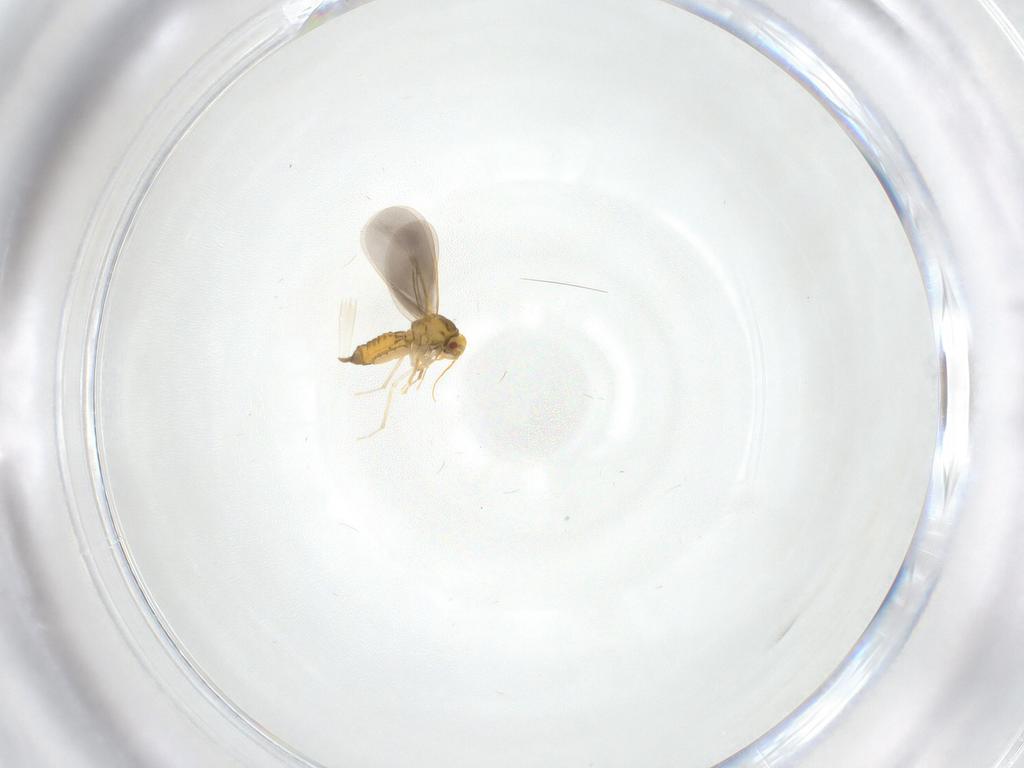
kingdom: Animalia
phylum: Arthropoda
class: Insecta
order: Hemiptera
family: Aleyrodidae
